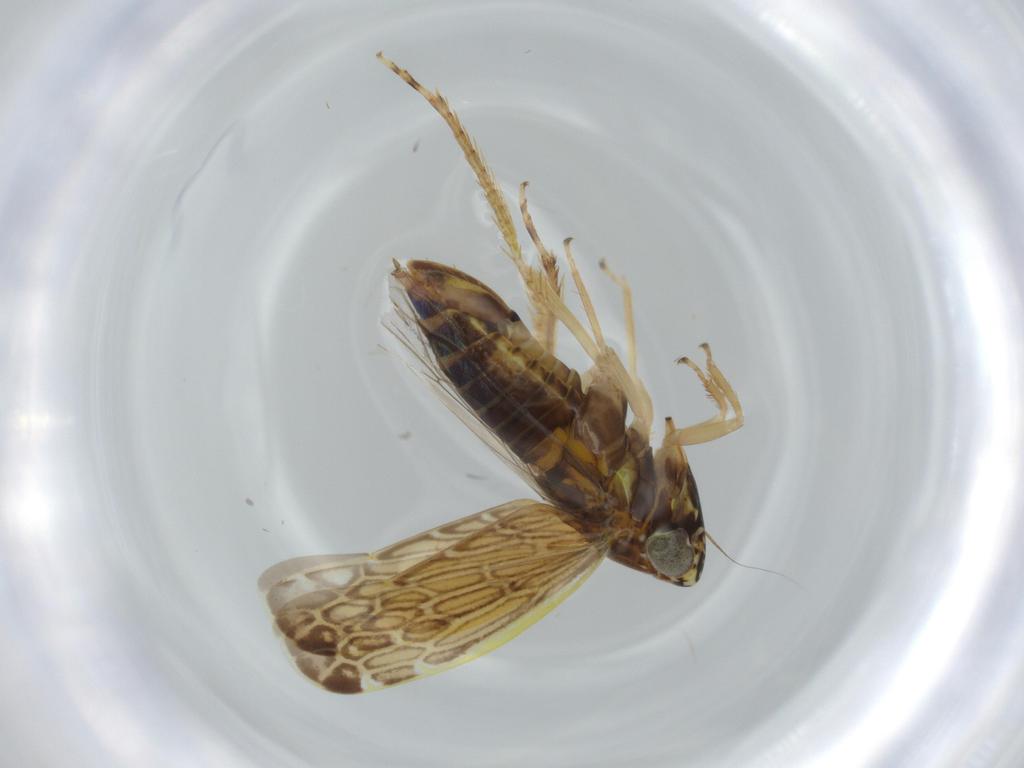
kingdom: Animalia
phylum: Arthropoda
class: Insecta
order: Hemiptera
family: Cicadellidae
